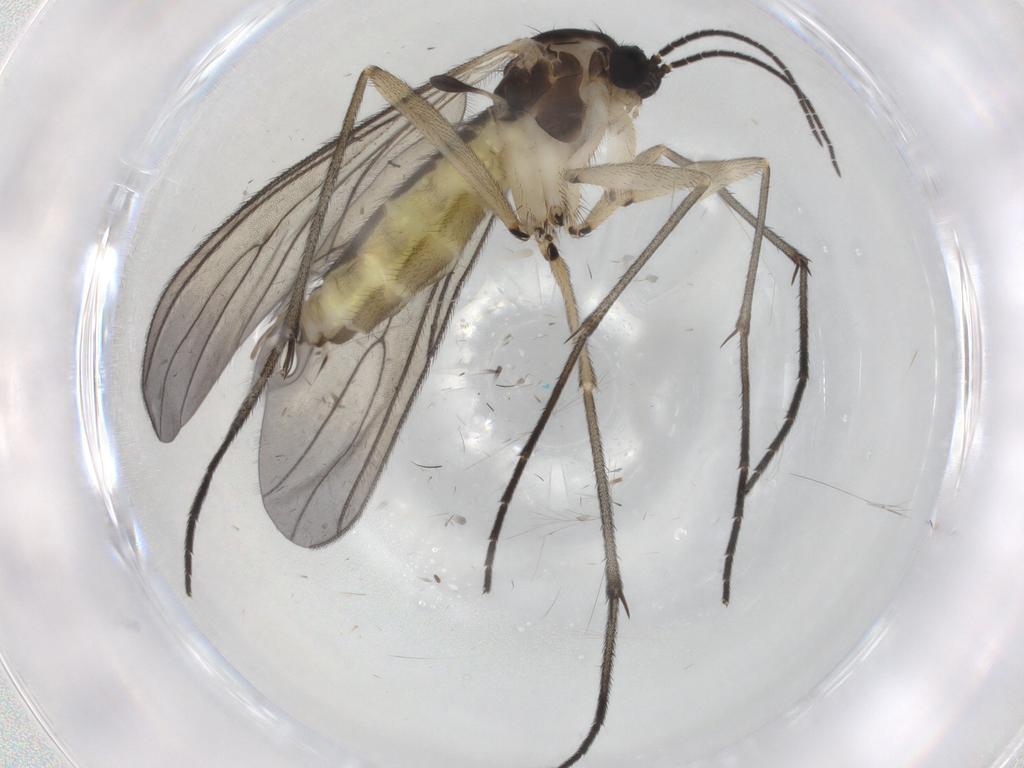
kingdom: Animalia
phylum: Arthropoda
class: Insecta
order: Diptera
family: Sciaridae
